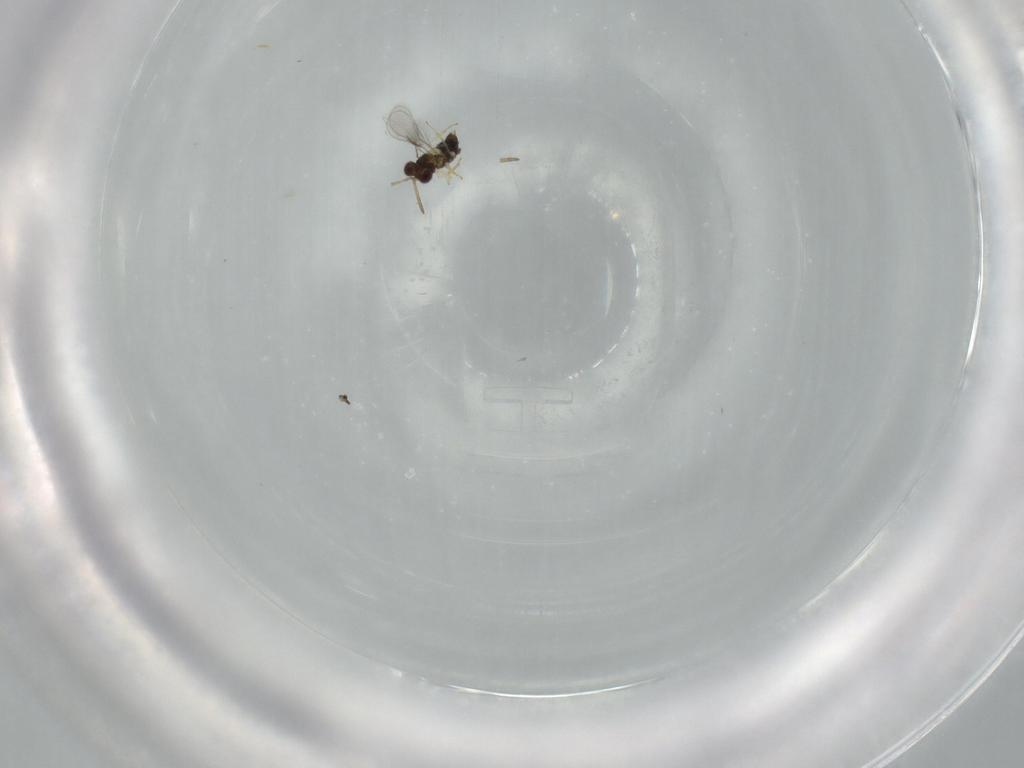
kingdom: Animalia
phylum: Arthropoda
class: Insecta
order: Hymenoptera
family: Aphelinidae
